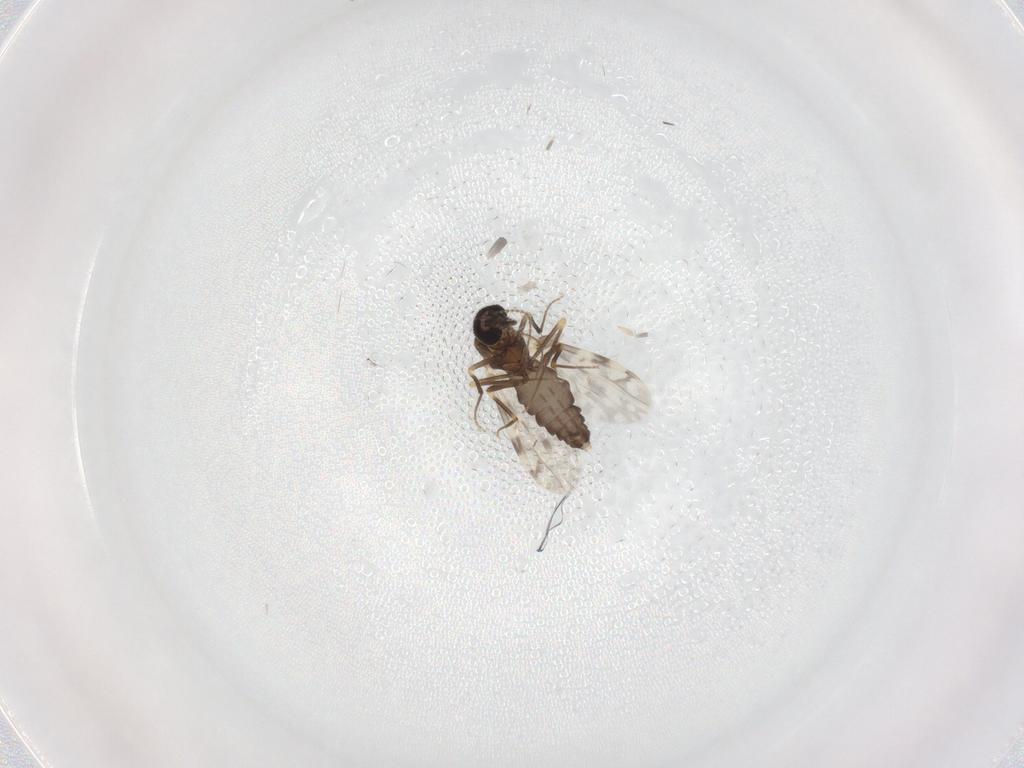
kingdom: Animalia
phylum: Arthropoda
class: Insecta
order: Diptera
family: Ceratopogonidae
